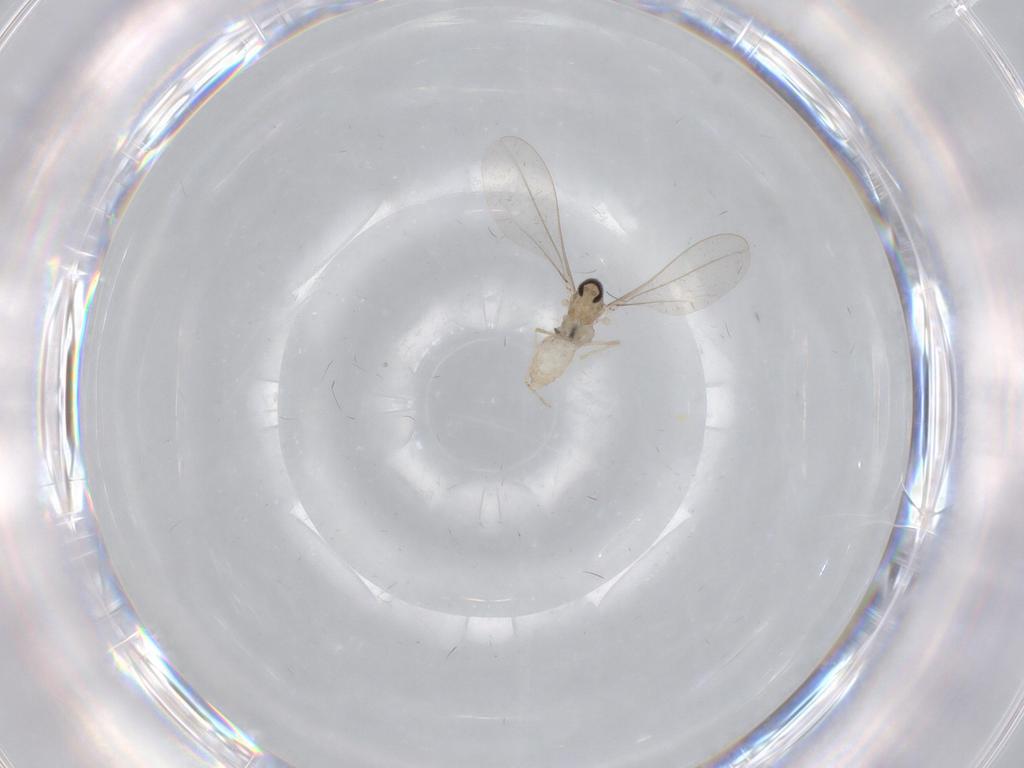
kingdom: Animalia
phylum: Arthropoda
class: Insecta
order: Diptera
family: Cecidomyiidae
